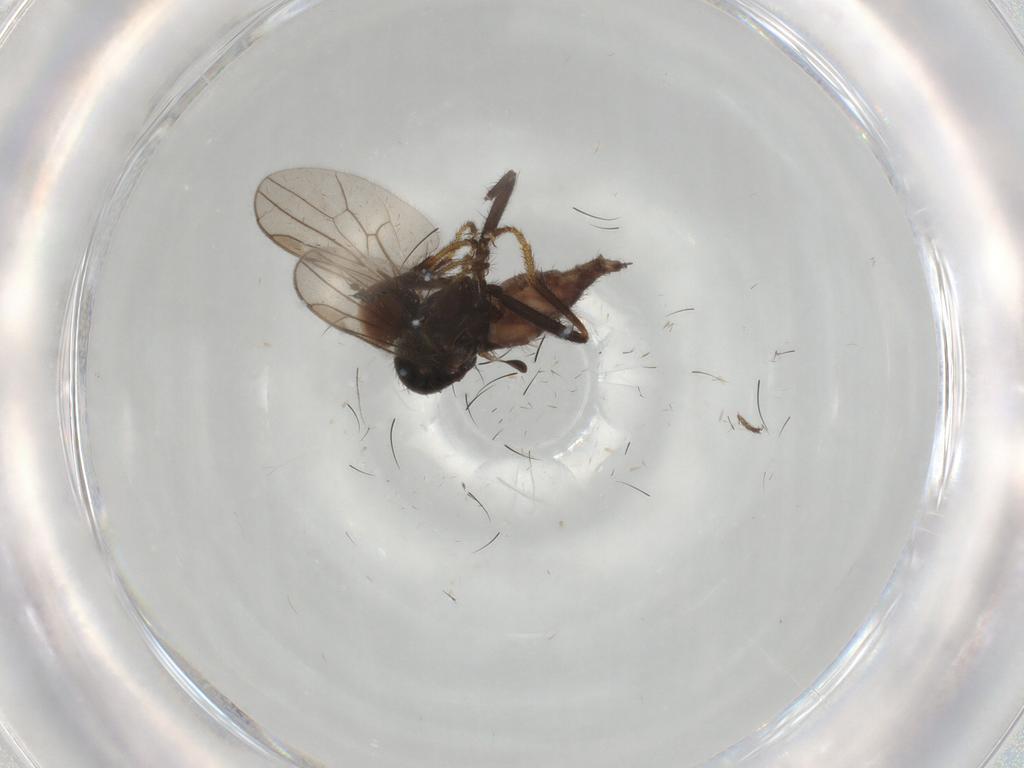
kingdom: Animalia
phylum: Arthropoda
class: Insecta
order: Diptera
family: Hybotidae
